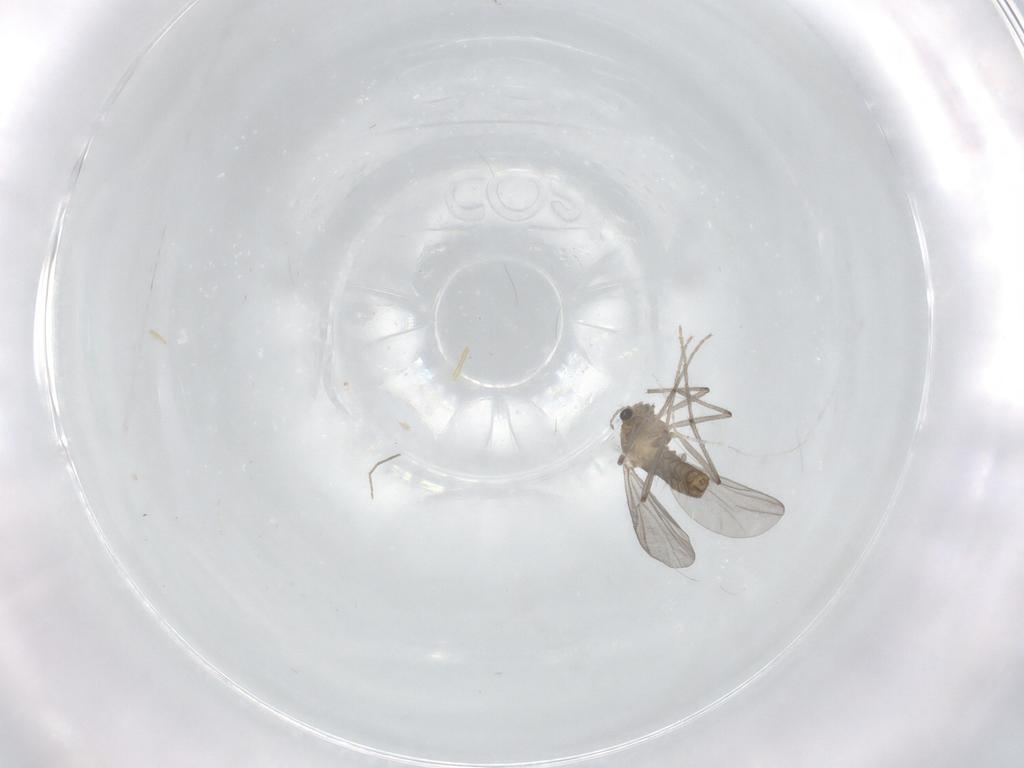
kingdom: Animalia
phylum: Arthropoda
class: Insecta
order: Diptera
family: Chironomidae
